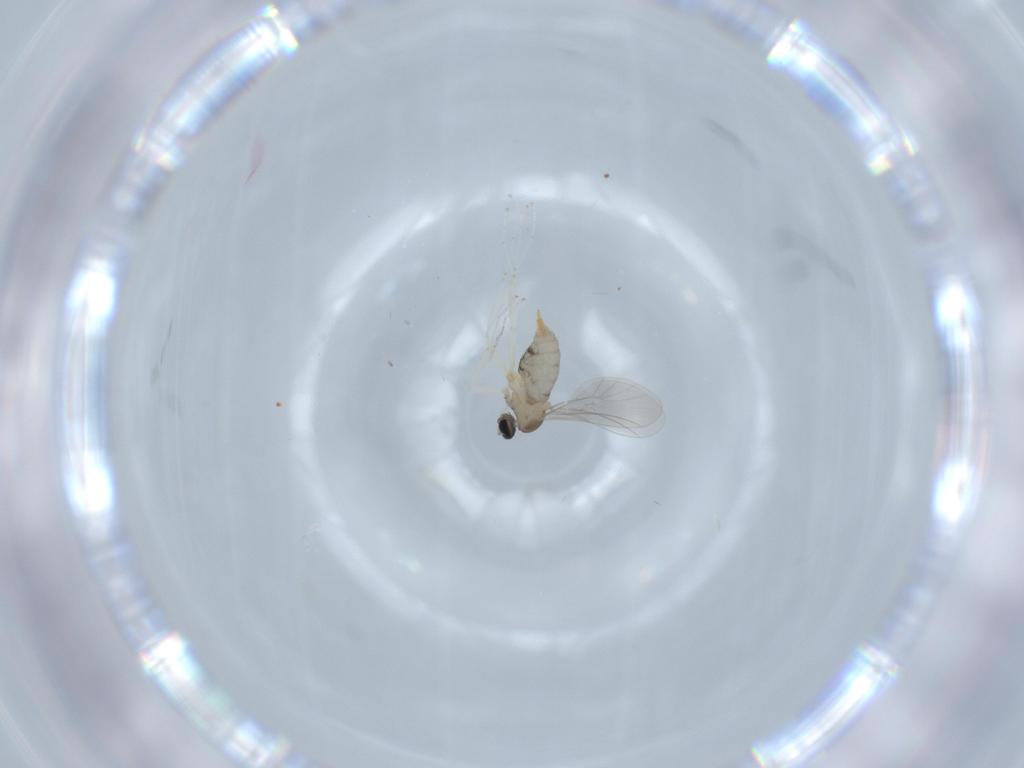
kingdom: Animalia
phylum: Arthropoda
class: Insecta
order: Diptera
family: Cecidomyiidae
